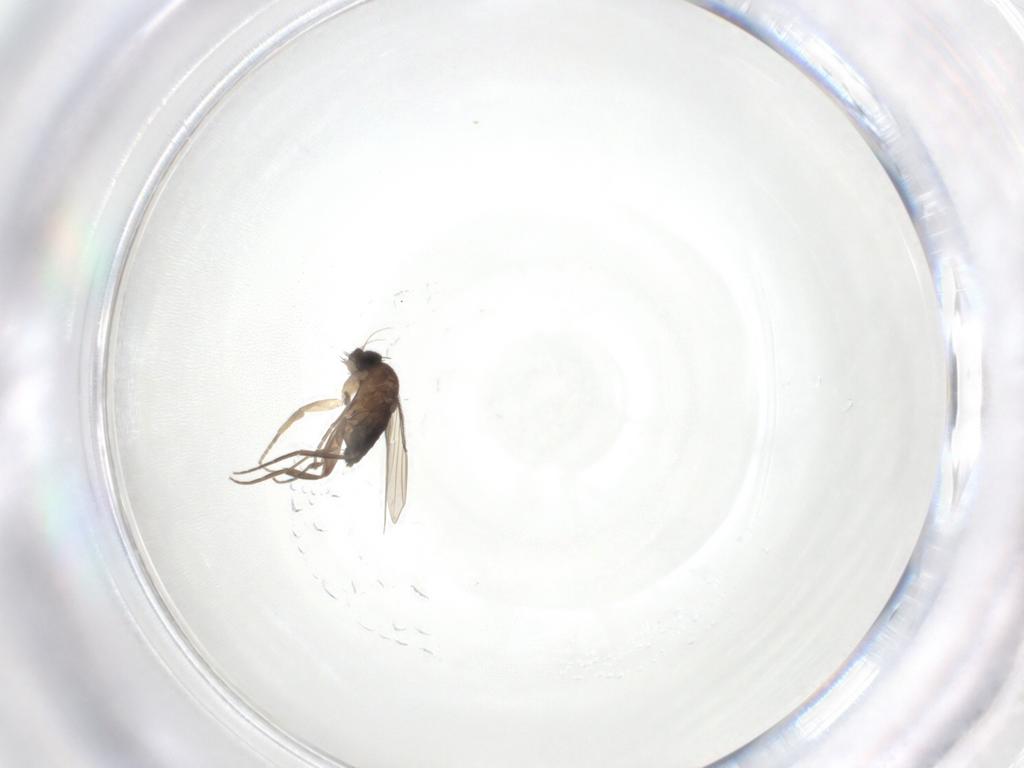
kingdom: Animalia
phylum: Arthropoda
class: Insecta
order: Diptera
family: Phoridae
